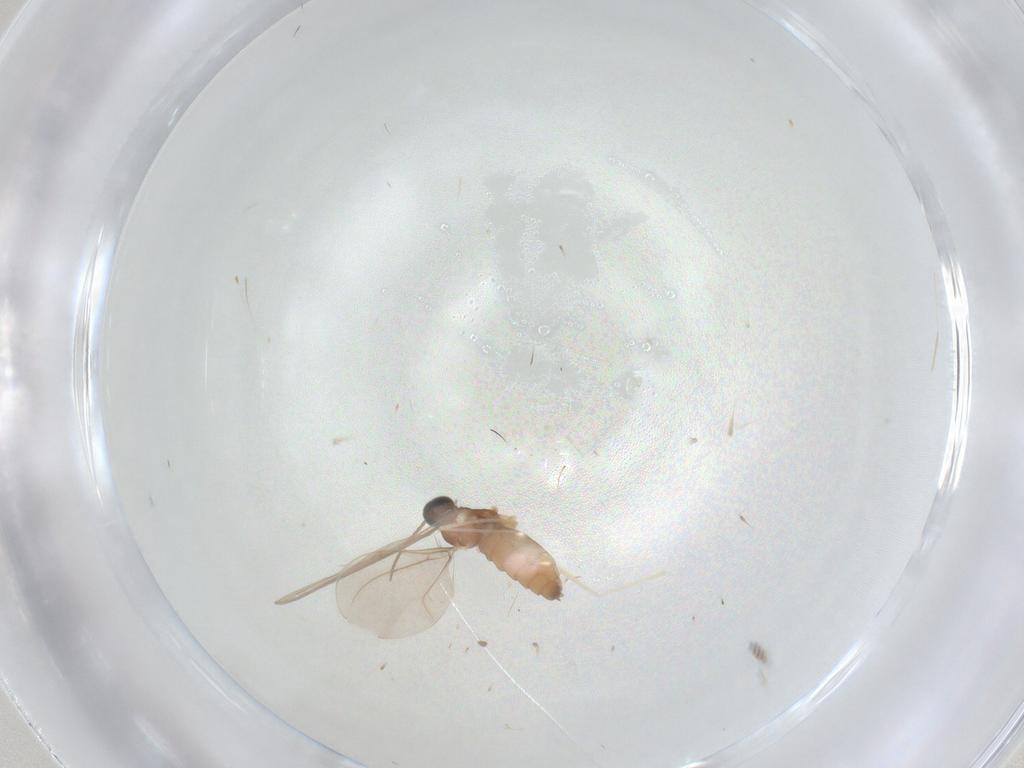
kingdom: Animalia
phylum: Arthropoda
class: Insecta
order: Diptera
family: Cecidomyiidae
